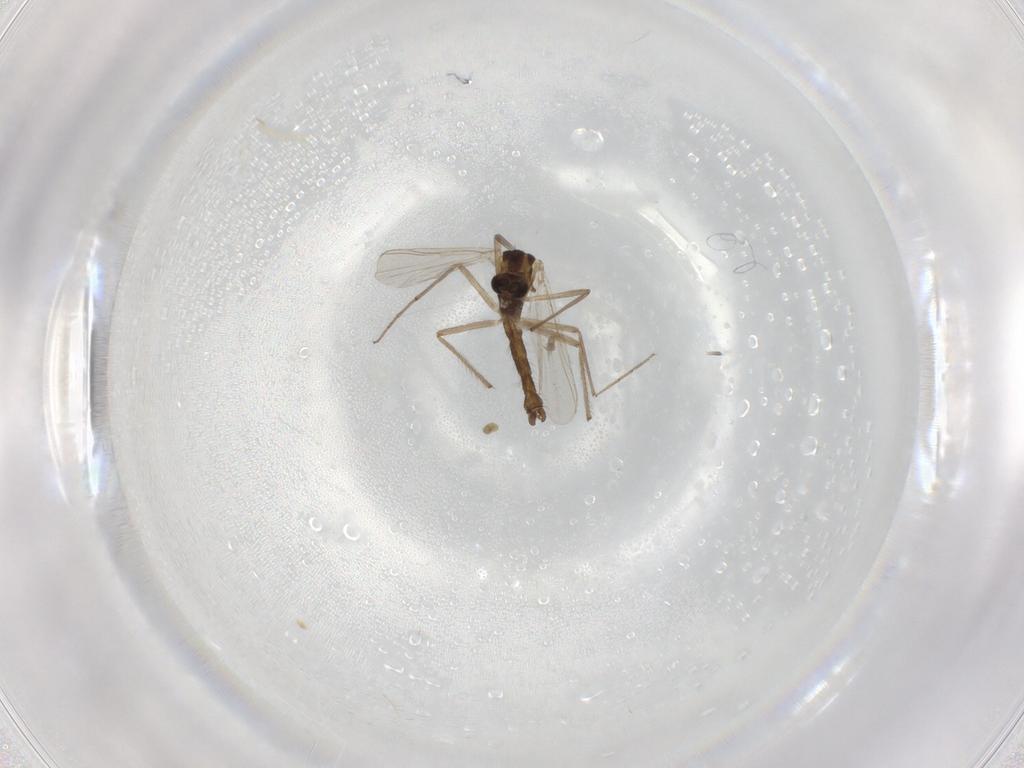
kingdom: Animalia
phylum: Arthropoda
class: Insecta
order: Diptera
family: Chironomidae
